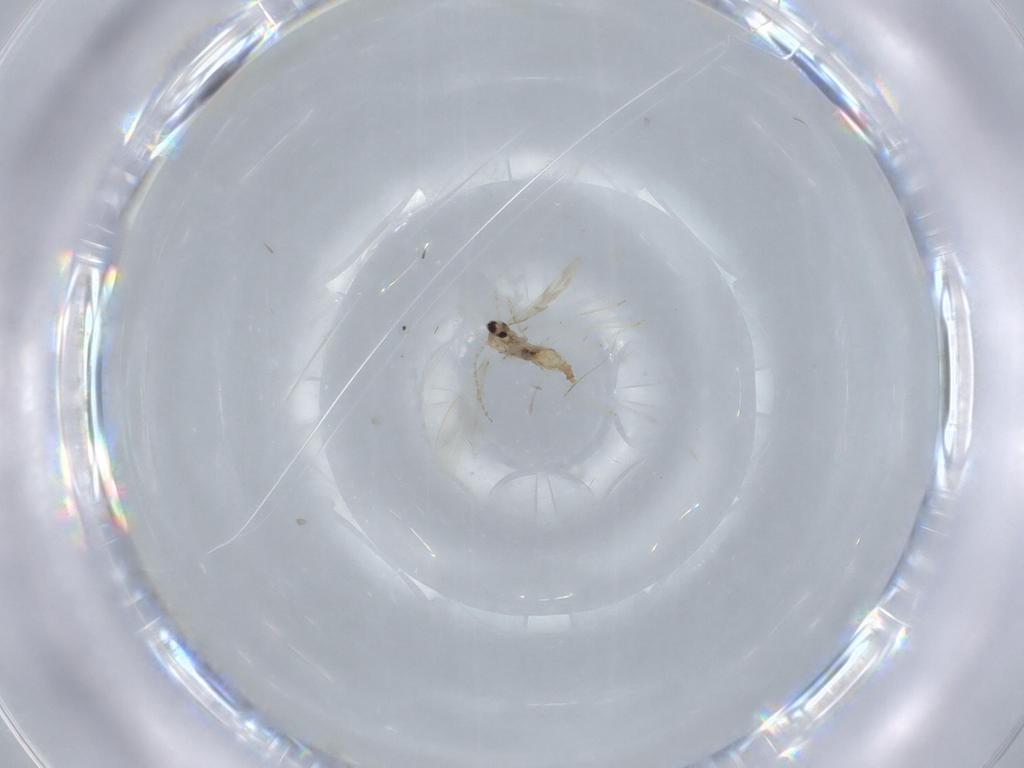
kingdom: Animalia
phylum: Arthropoda
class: Insecta
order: Diptera
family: Cecidomyiidae
